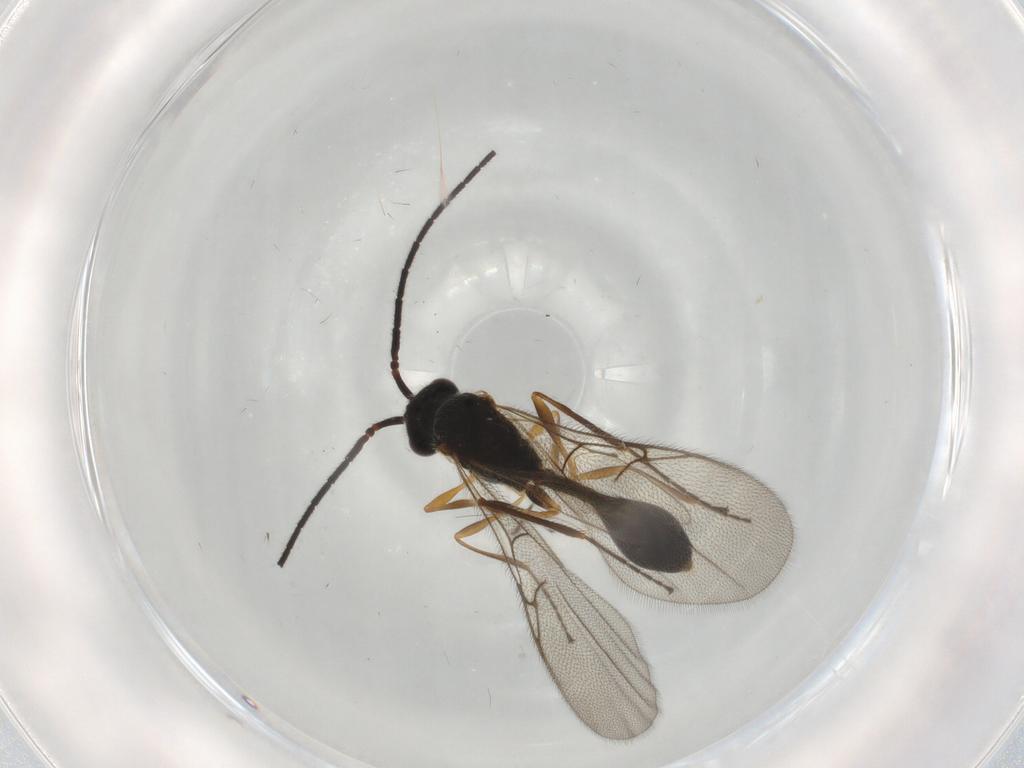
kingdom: Animalia
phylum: Arthropoda
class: Insecta
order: Hymenoptera
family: Diapriidae
